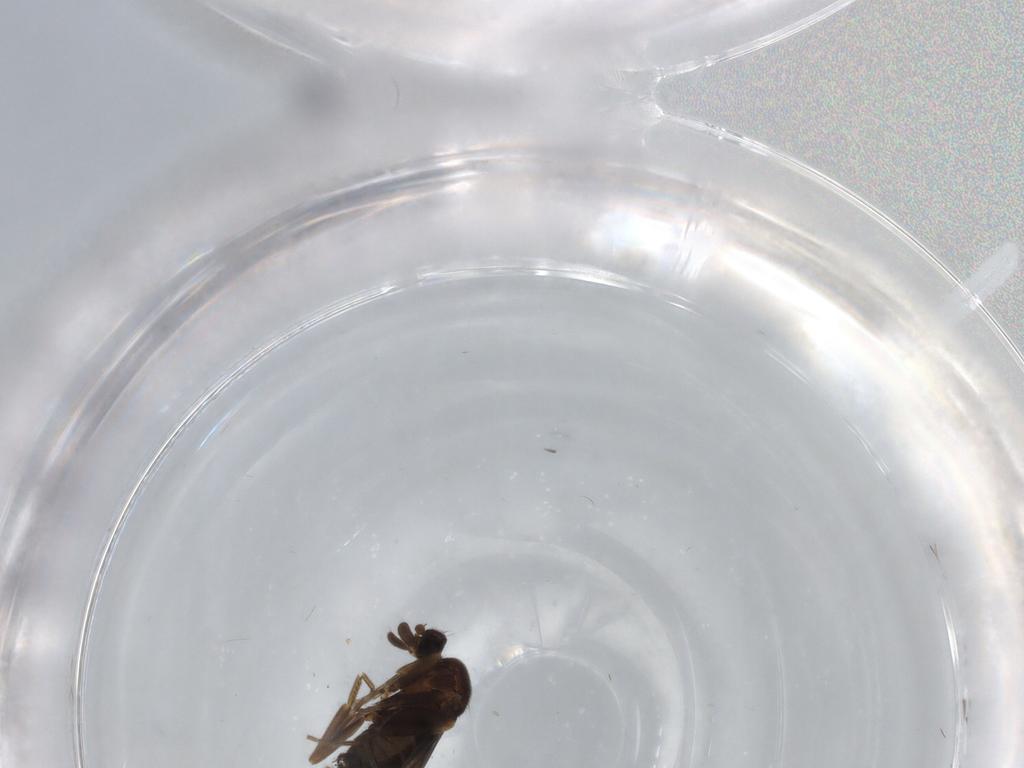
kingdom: Animalia
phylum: Arthropoda
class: Insecta
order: Diptera
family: Phoridae
